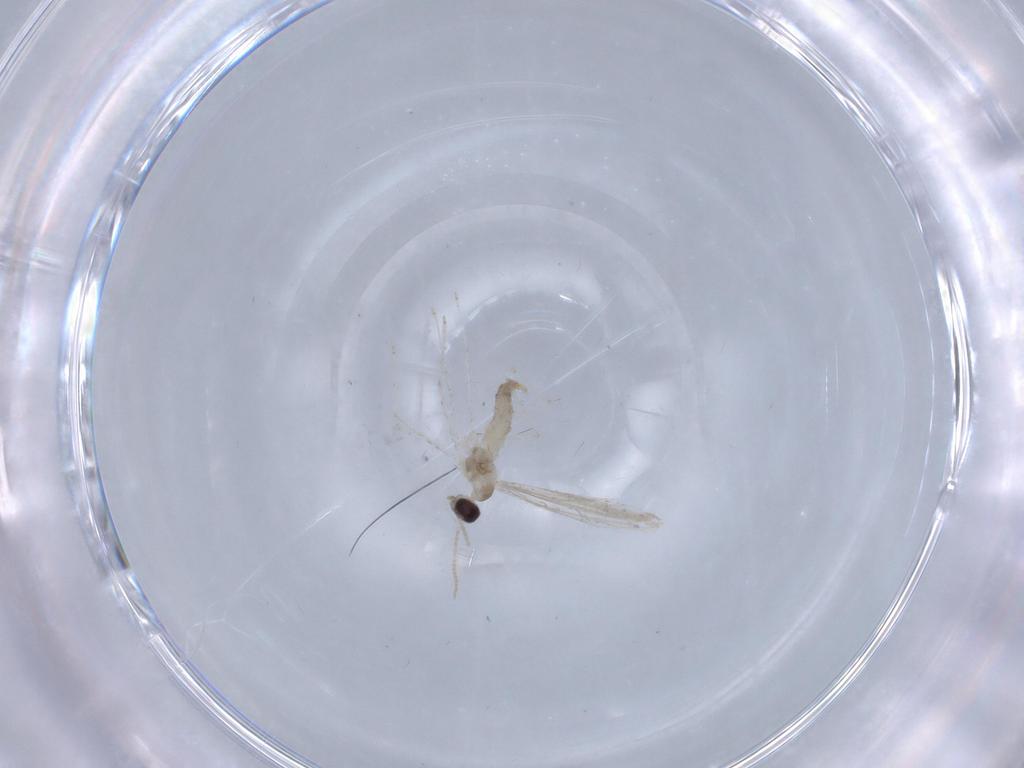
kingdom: Animalia
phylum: Arthropoda
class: Insecta
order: Diptera
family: Cecidomyiidae
